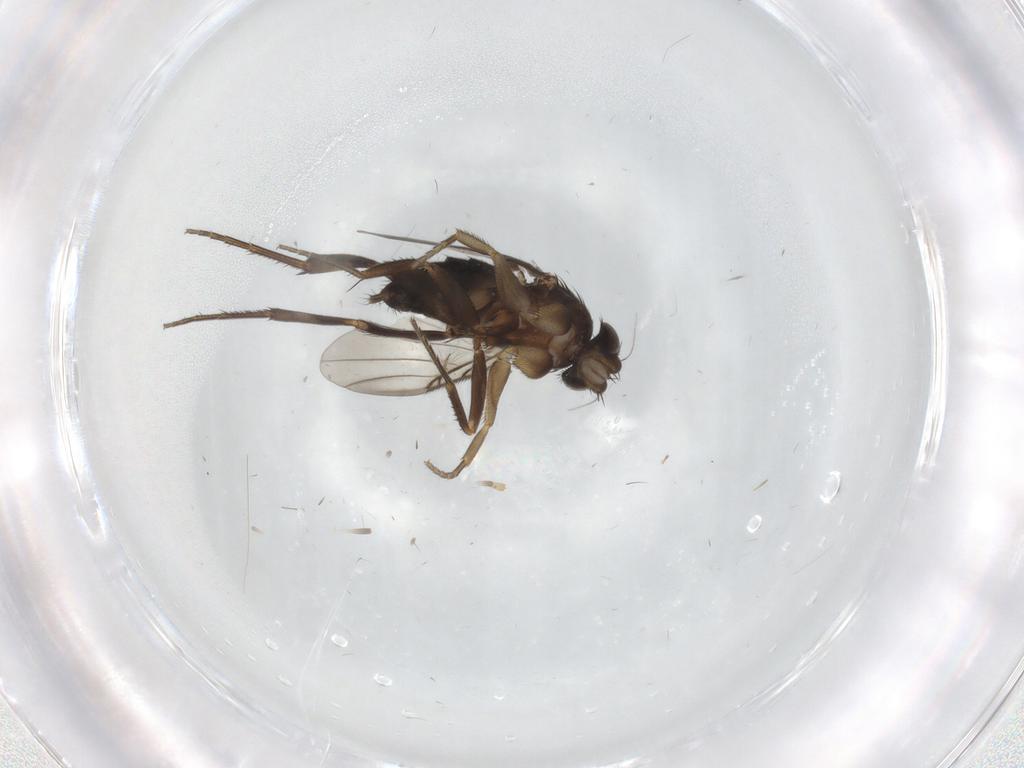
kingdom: Animalia
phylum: Arthropoda
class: Insecta
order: Diptera
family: Phoridae
